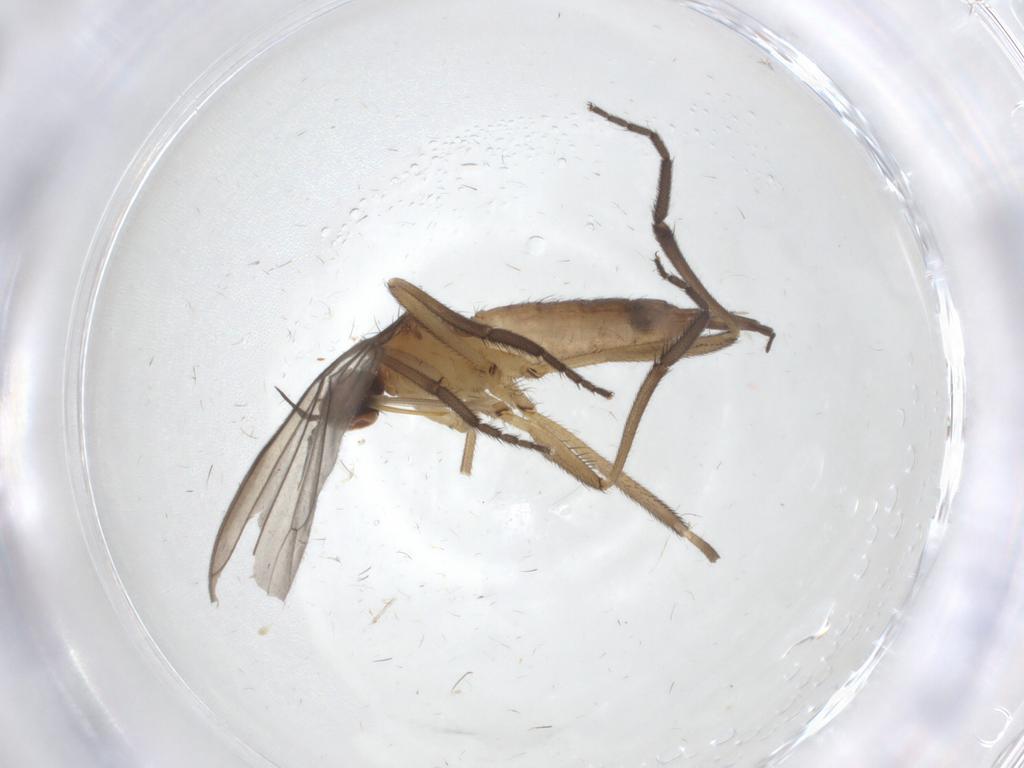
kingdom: Animalia
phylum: Arthropoda
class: Insecta
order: Diptera
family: Empididae
